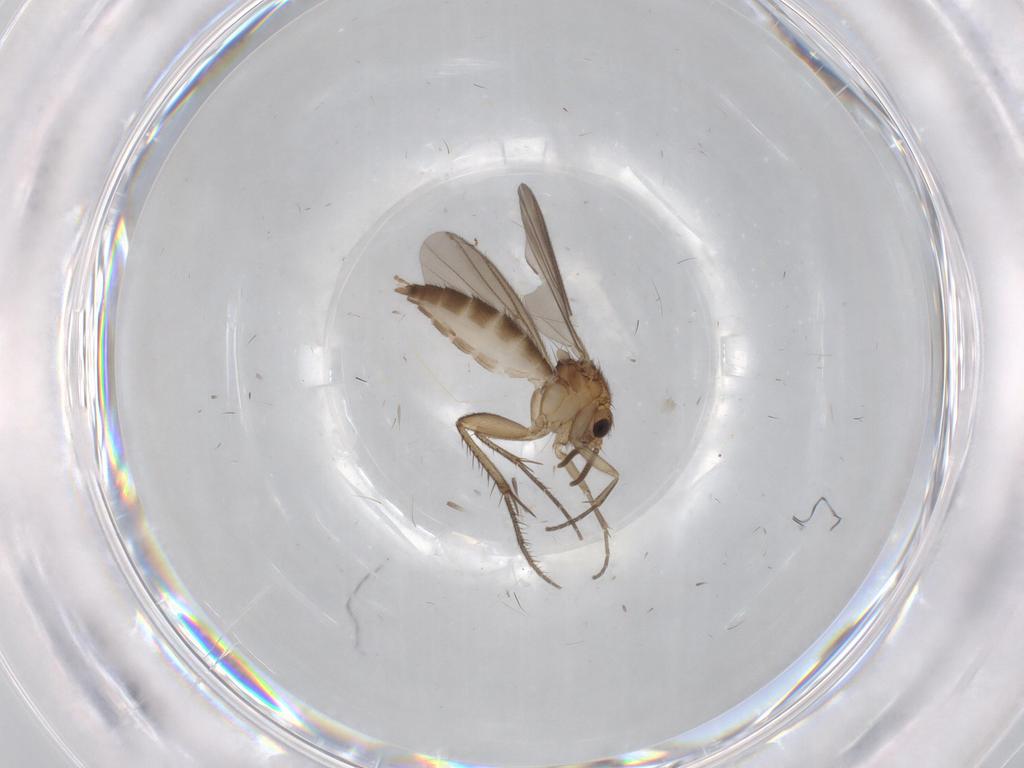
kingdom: Animalia
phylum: Arthropoda
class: Insecta
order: Diptera
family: Mycetophilidae
